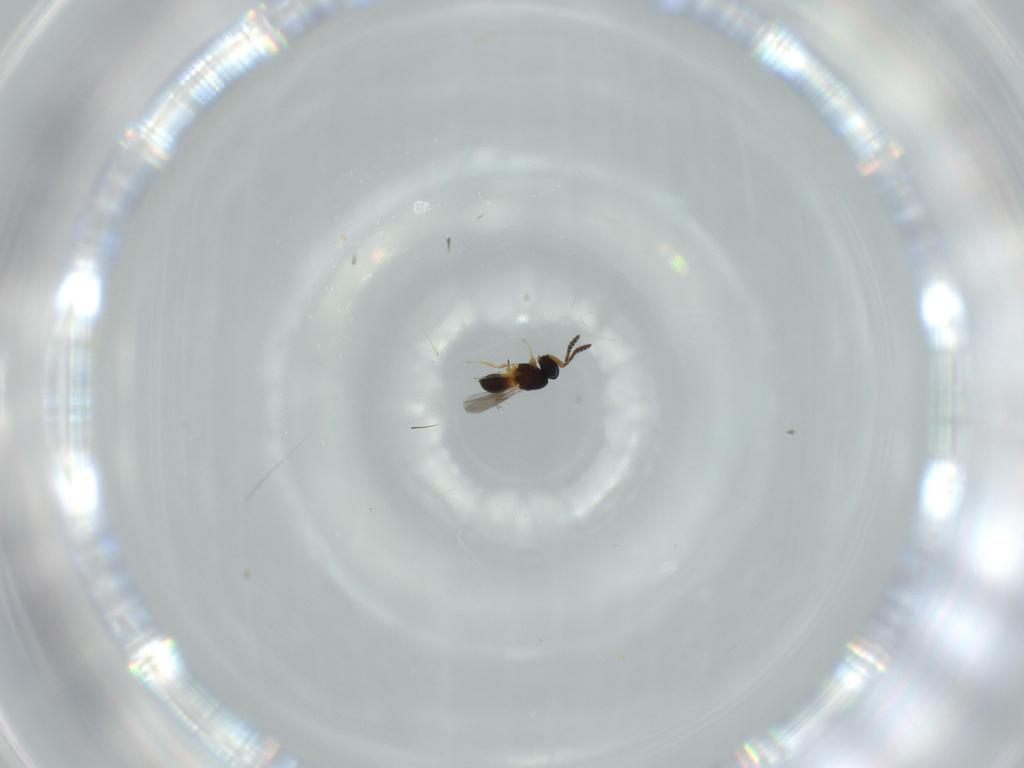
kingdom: Animalia
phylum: Arthropoda
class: Insecta
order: Hymenoptera
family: Scelionidae
